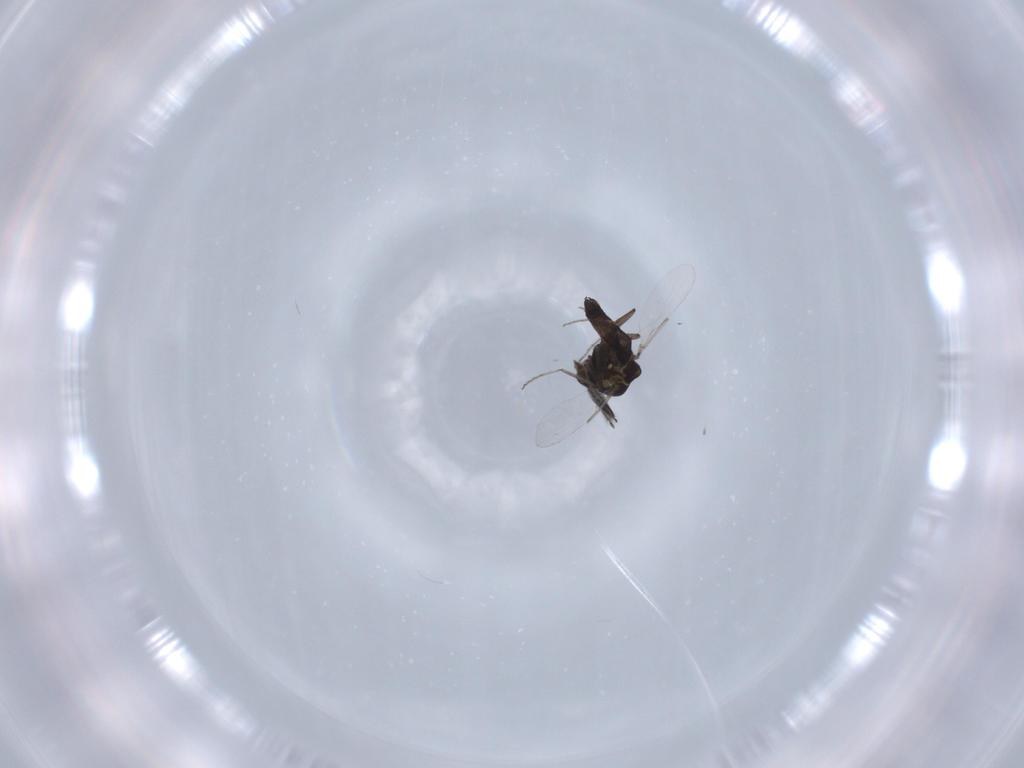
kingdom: Animalia
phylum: Arthropoda
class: Insecta
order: Diptera
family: Ceratopogonidae
